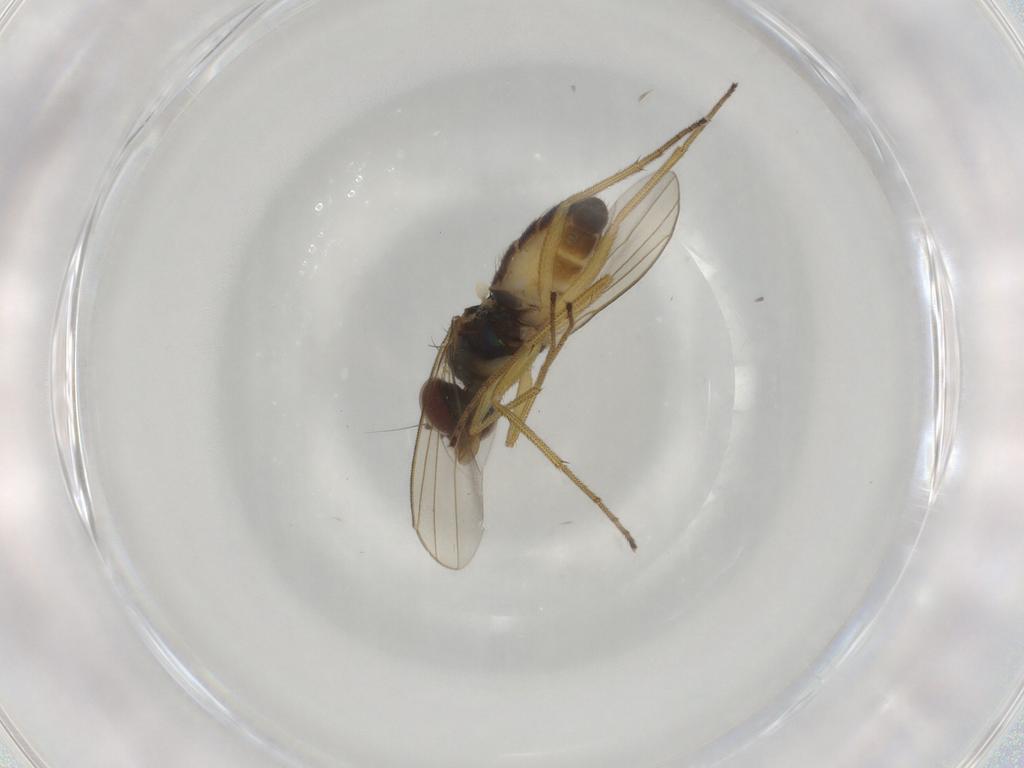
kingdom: Animalia
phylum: Arthropoda
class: Insecta
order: Diptera
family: Dolichopodidae
